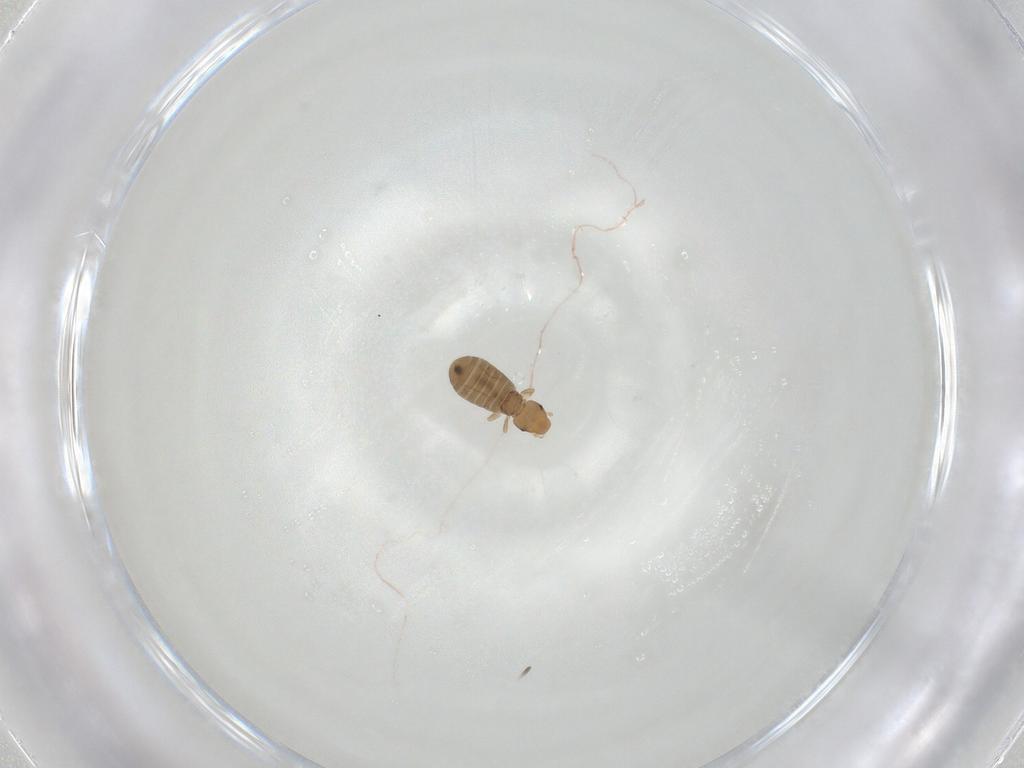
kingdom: Animalia
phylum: Arthropoda
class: Insecta
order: Psocodea
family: Liposcelididae
